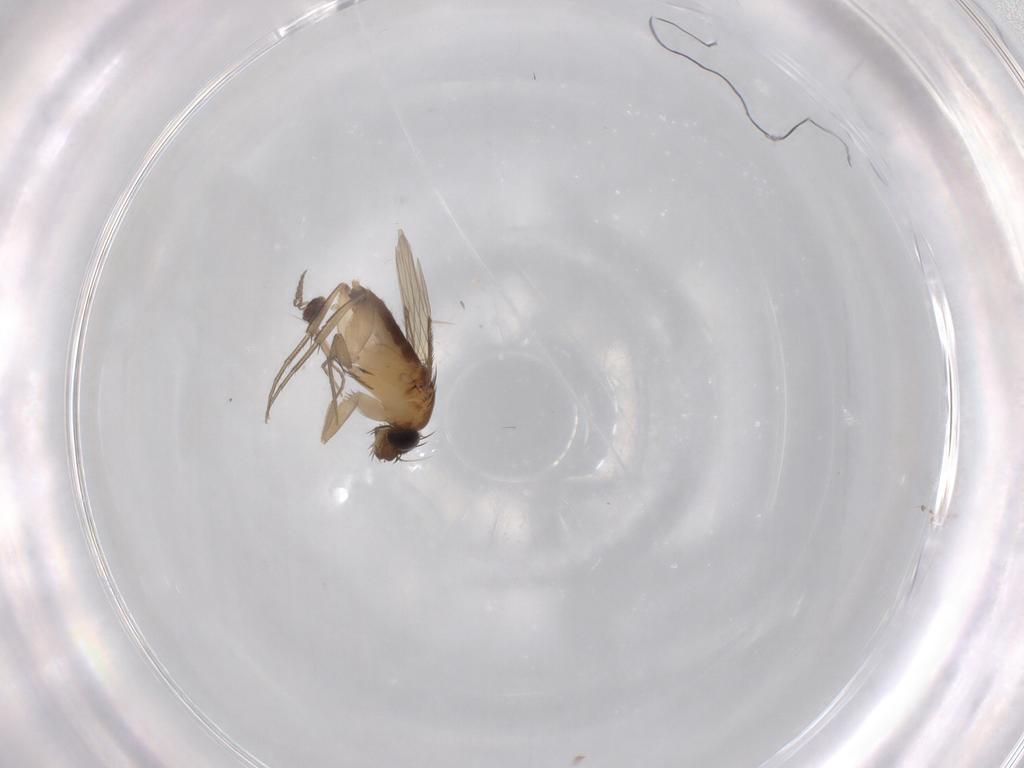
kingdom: Animalia
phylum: Arthropoda
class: Insecta
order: Diptera
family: Phoridae
